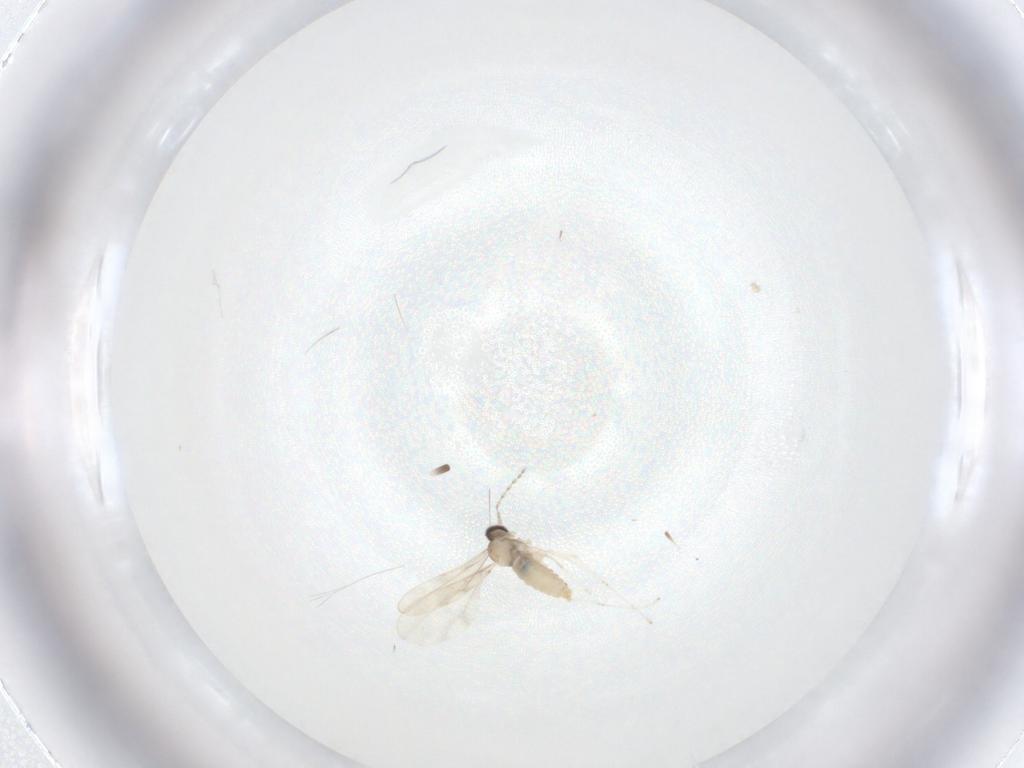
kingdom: Animalia
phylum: Arthropoda
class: Insecta
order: Diptera
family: Cecidomyiidae
